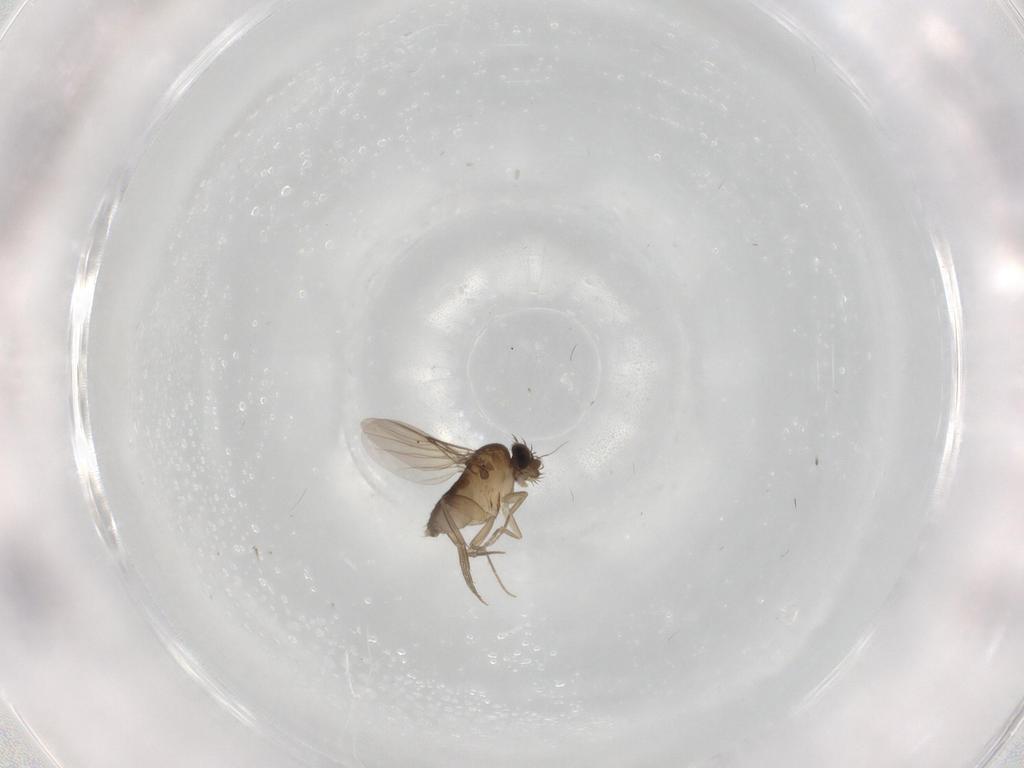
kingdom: Animalia
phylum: Arthropoda
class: Insecta
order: Diptera
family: Phoridae
